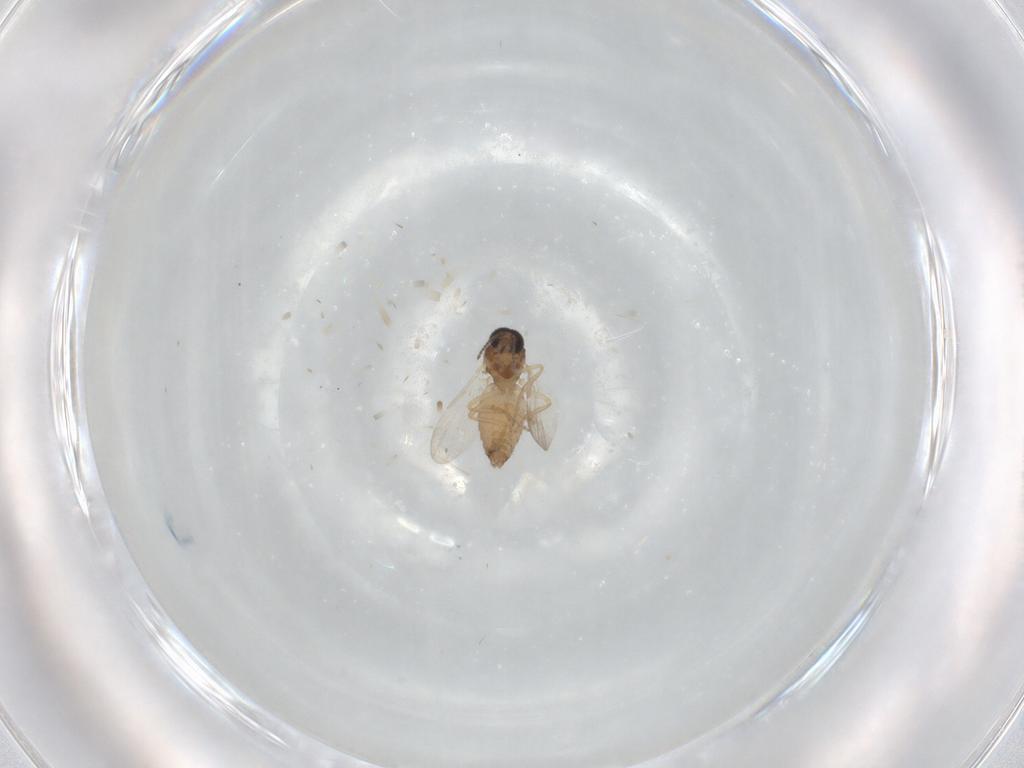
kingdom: Animalia
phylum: Arthropoda
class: Insecta
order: Diptera
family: Ceratopogonidae
